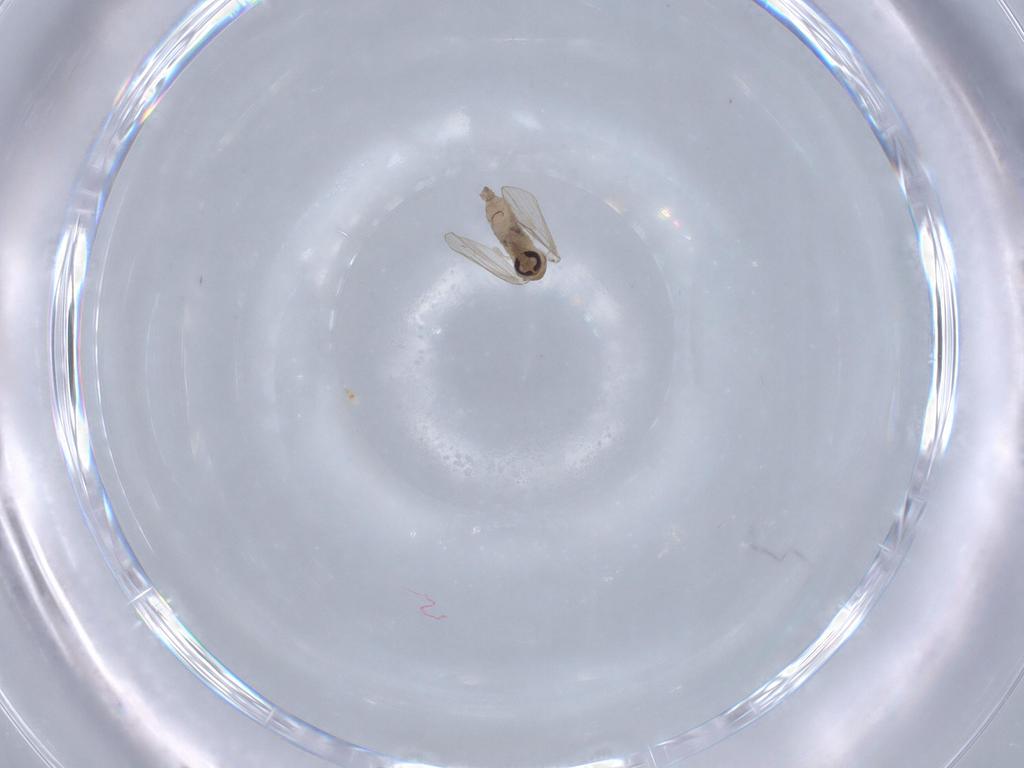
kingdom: Animalia
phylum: Arthropoda
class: Insecta
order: Diptera
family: Psychodidae
